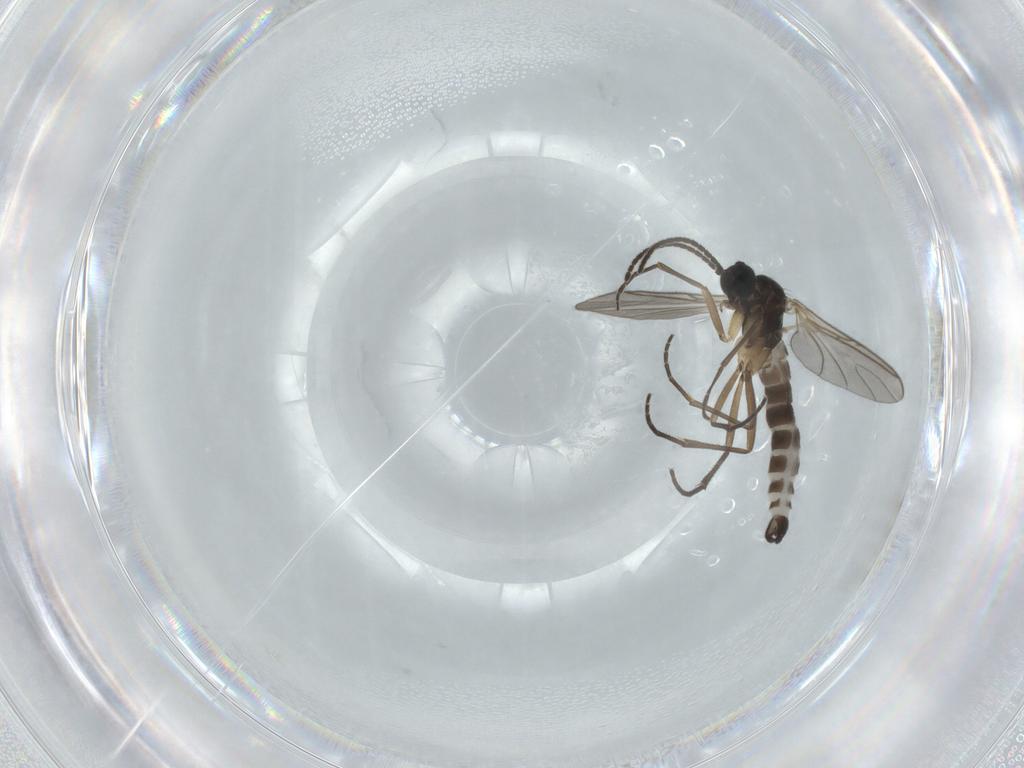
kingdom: Animalia
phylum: Arthropoda
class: Insecta
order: Diptera
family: Sciaridae
